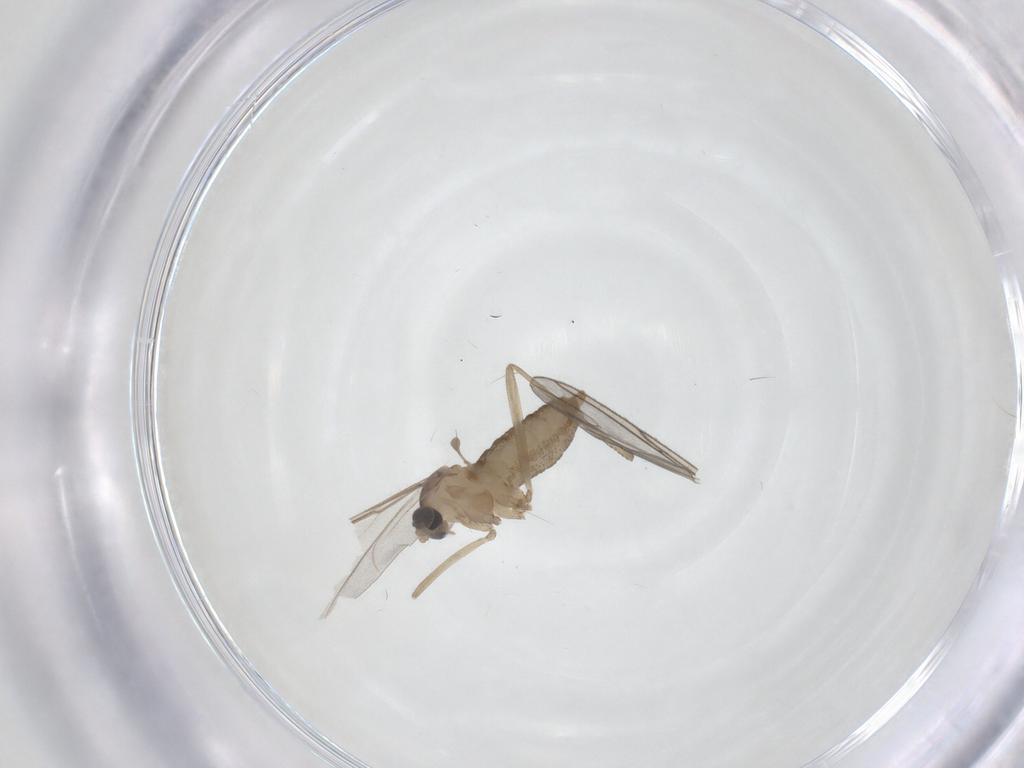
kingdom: Animalia
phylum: Arthropoda
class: Insecta
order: Diptera
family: Cecidomyiidae
